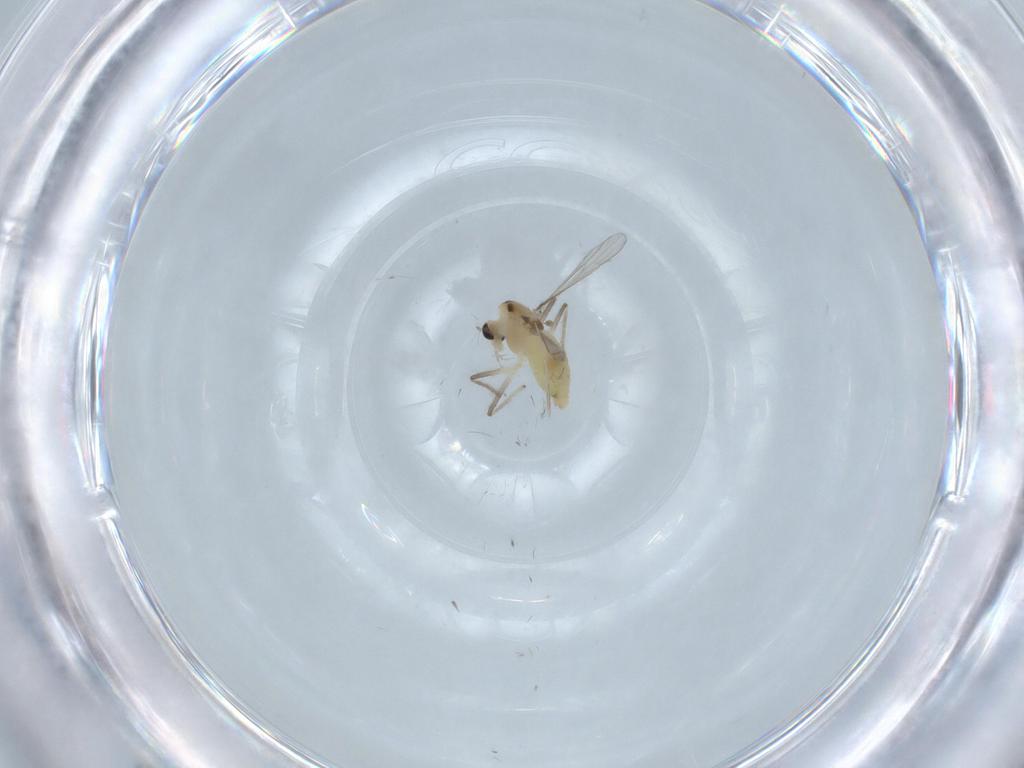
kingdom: Animalia
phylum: Arthropoda
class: Insecta
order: Diptera
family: Chironomidae
